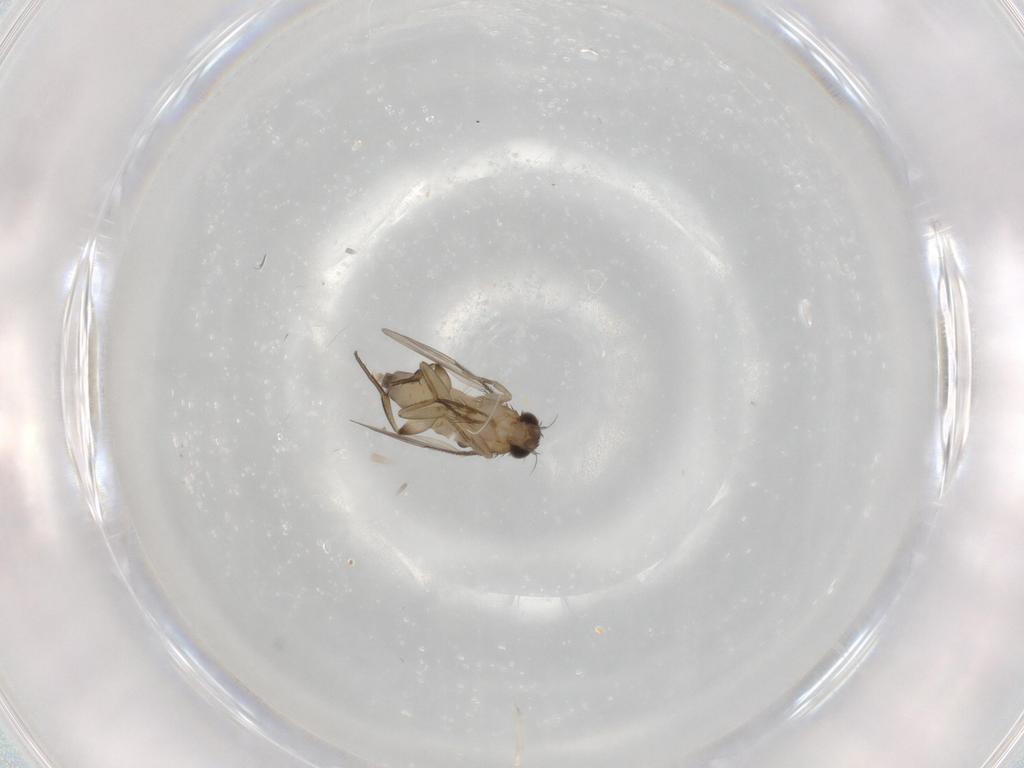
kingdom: Animalia
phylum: Arthropoda
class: Insecta
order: Diptera
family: Phoridae
